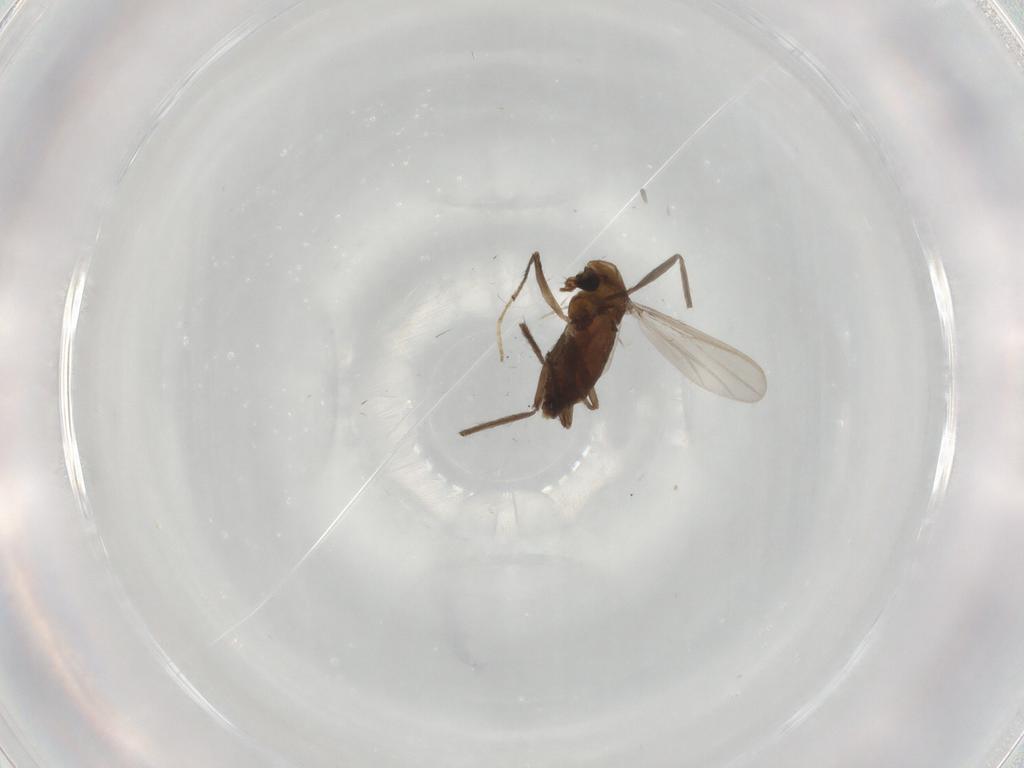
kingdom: Animalia
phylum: Arthropoda
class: Insecta
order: Diptera
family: Chironomidae
